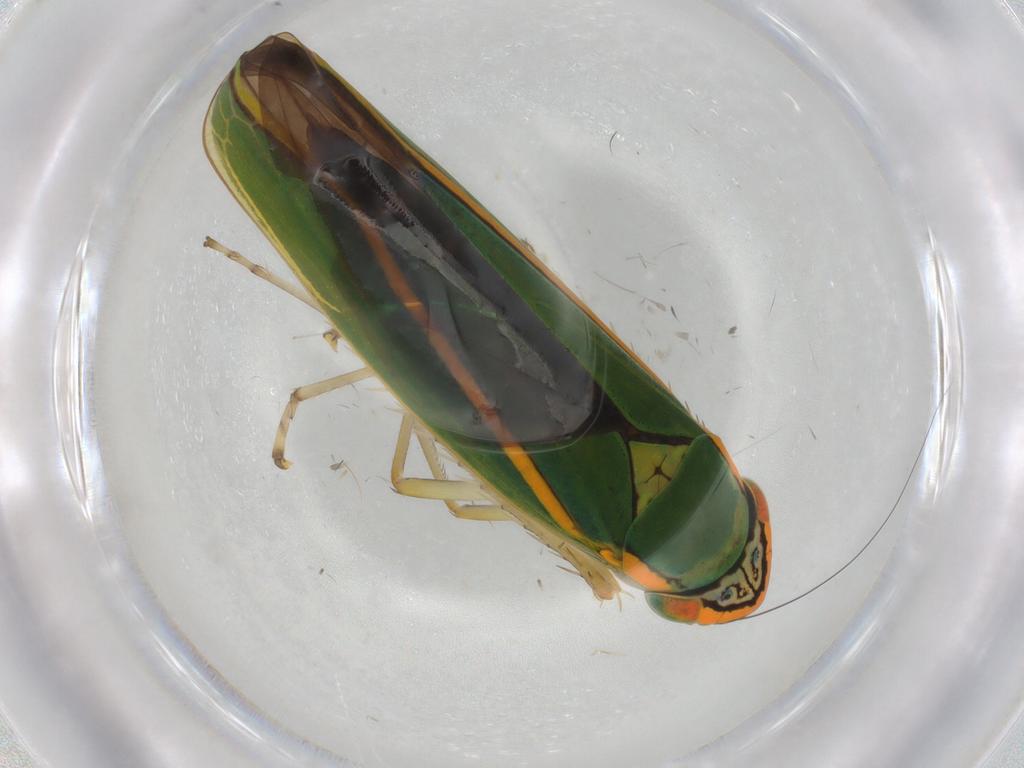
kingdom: Animalia
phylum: Arthropoda
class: Insecta
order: Hemiptera
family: Cicadellidae
